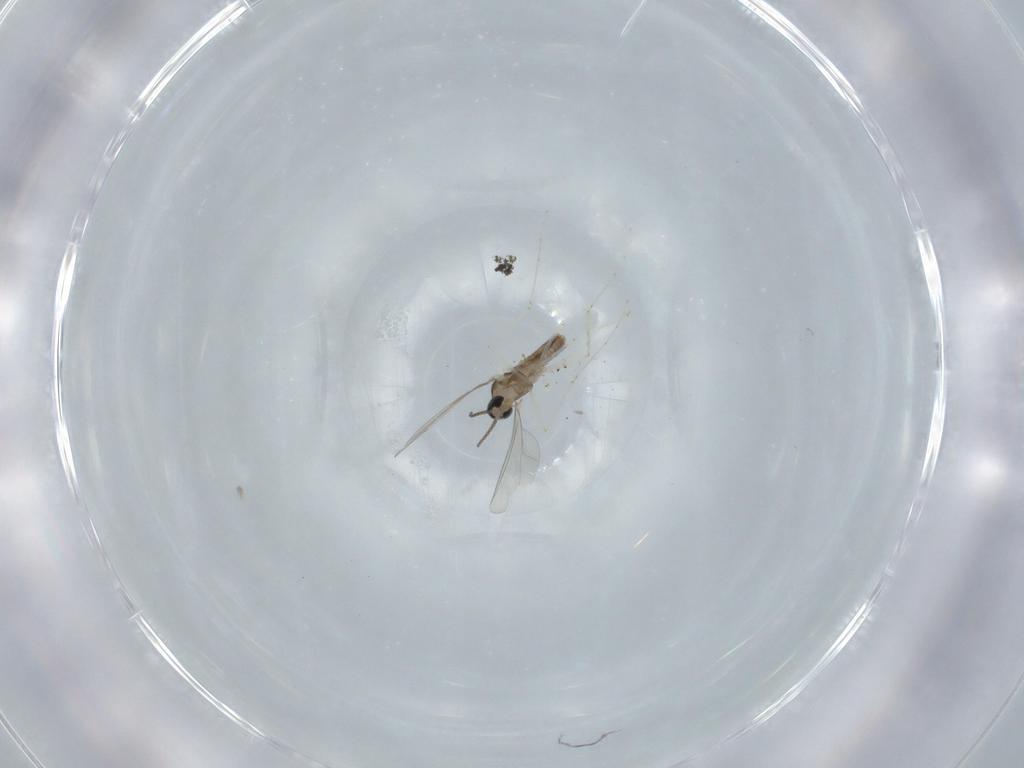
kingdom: Animalia
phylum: Arthropoda
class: Insecta
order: Diptera
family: Cecidomyiidae
